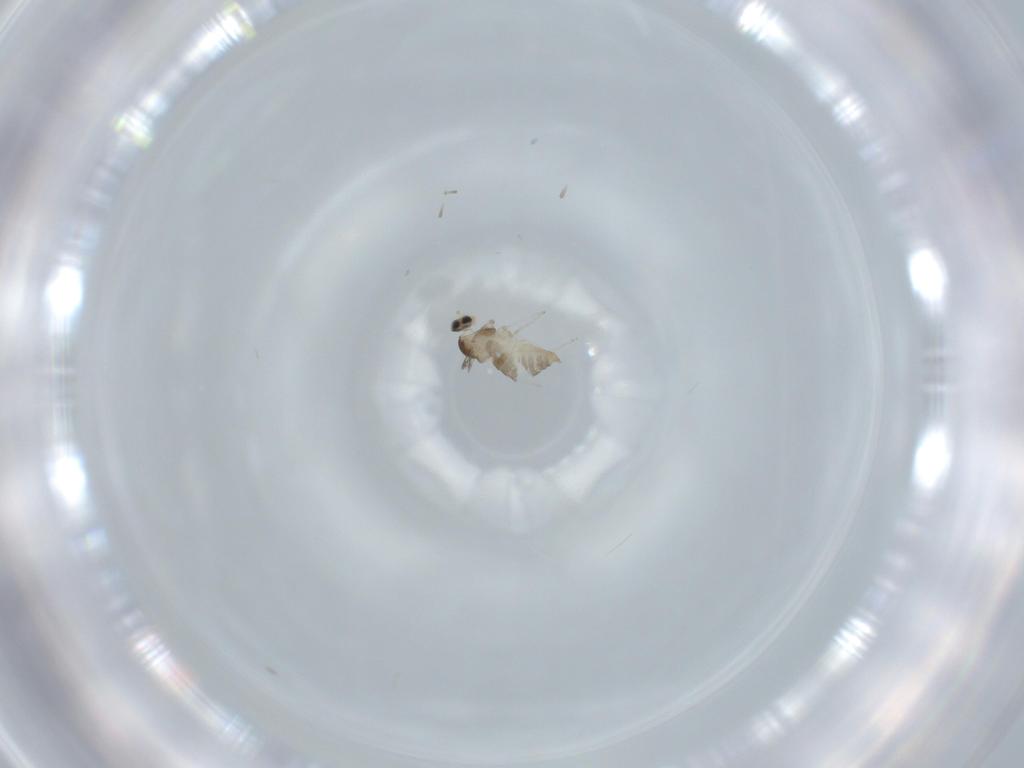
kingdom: Animalia
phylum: Arthropoda
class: Insecta
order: Diptera
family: Cecidomyiidae
